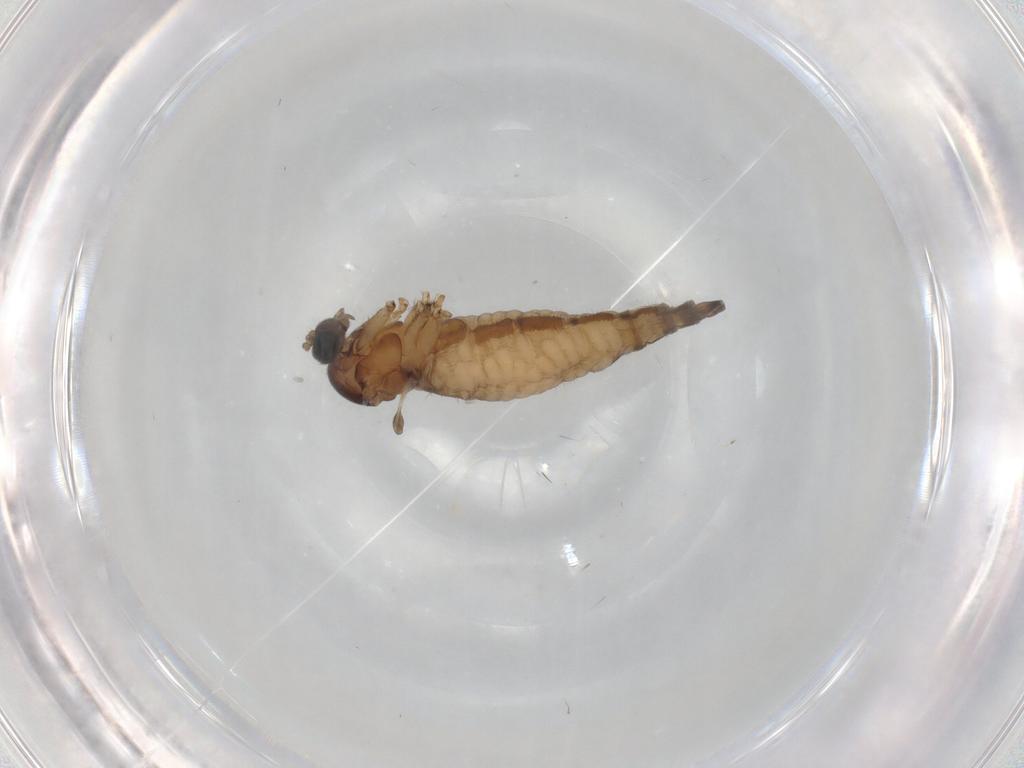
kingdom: Animalia
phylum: Arthropoda
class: Insecta
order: Diptera
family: Sciaridae
